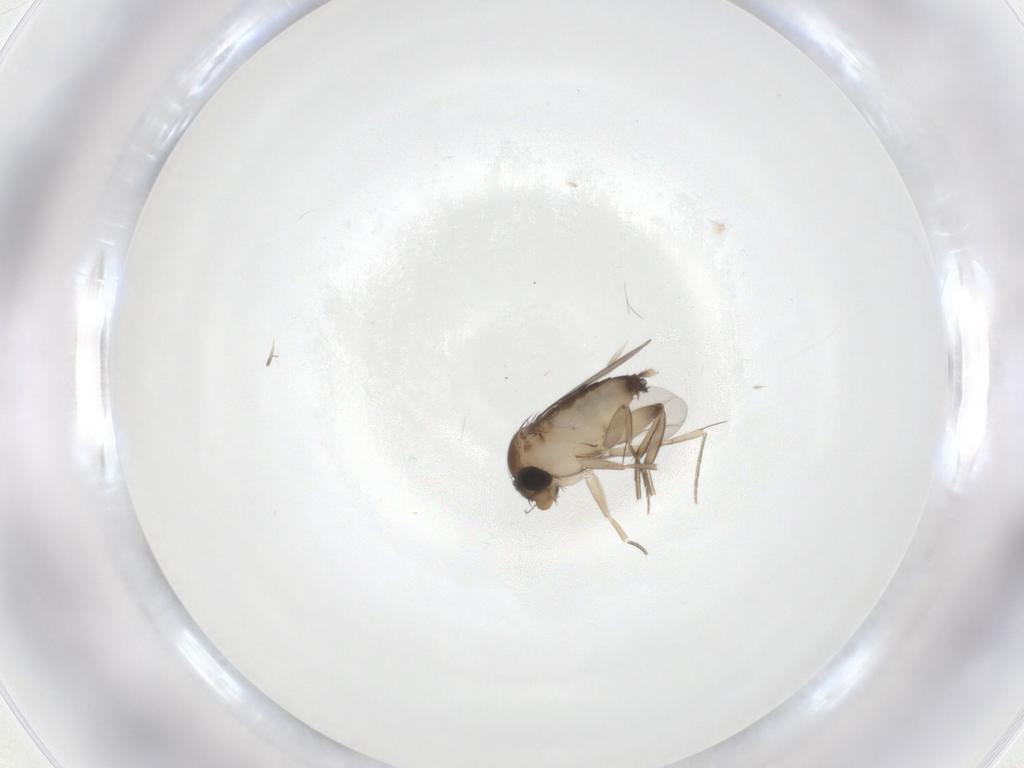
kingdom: Animalia
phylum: Arthropoda
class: Insecta
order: Diptera
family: Phoridae
